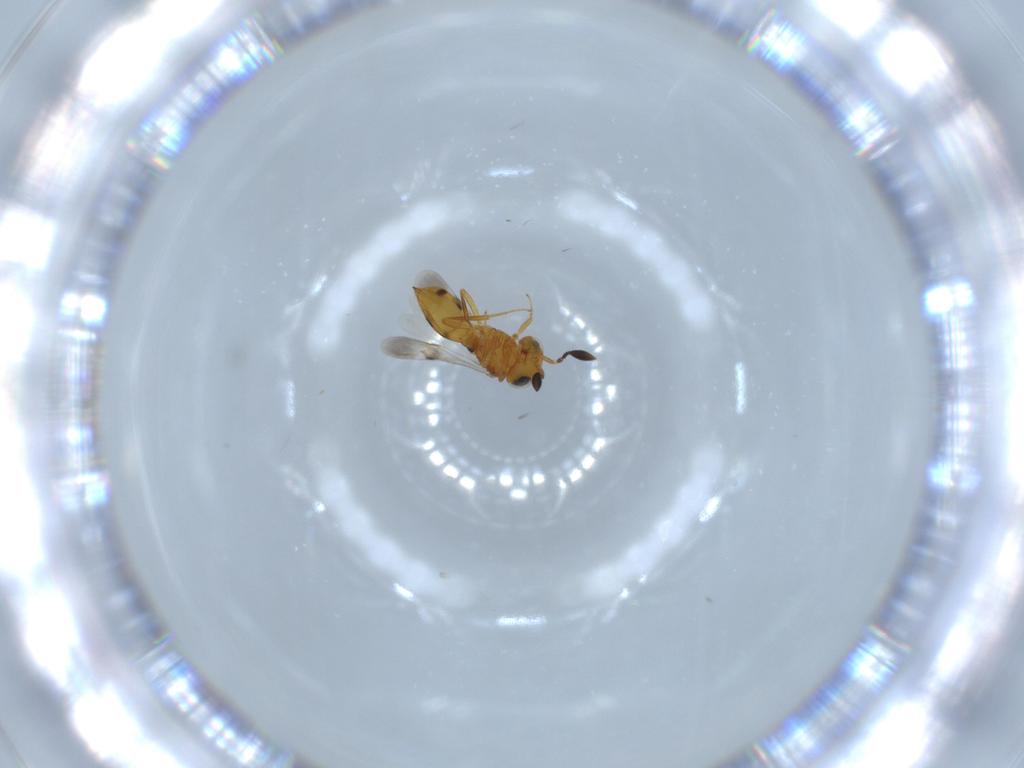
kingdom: Animalia
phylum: Arthropoda
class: Insecta
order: Hymenoptera
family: Scelionidae
